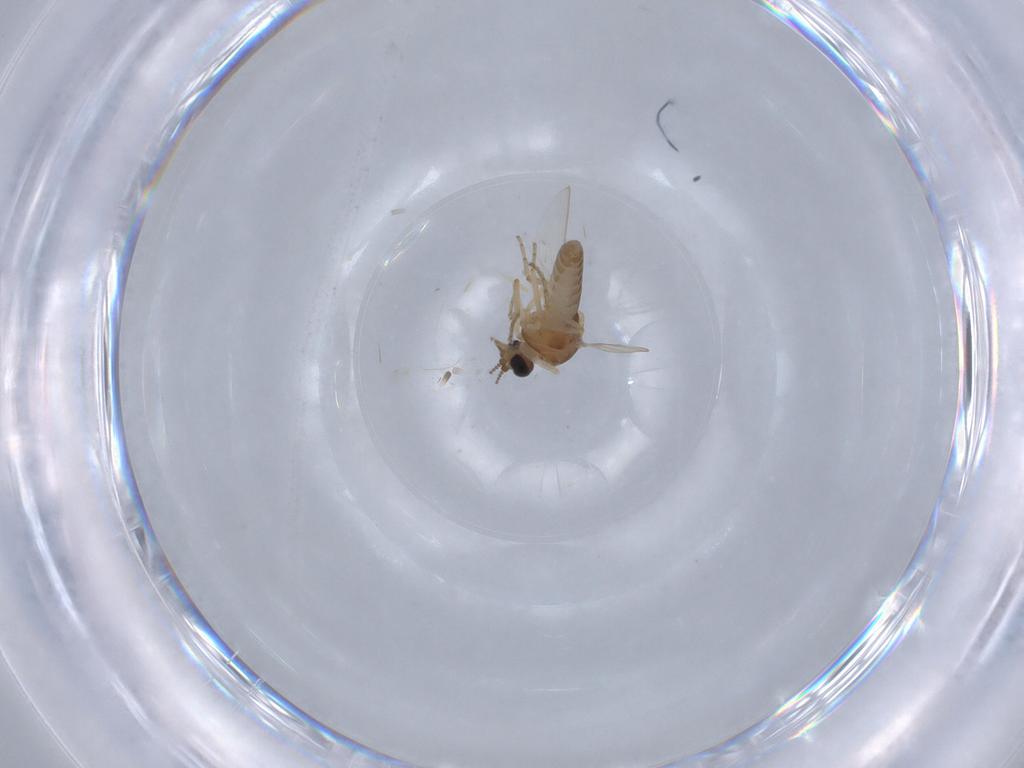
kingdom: Animalia
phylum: Arthropoda
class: Insecta
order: Diptera
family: Ceratopogonidae
